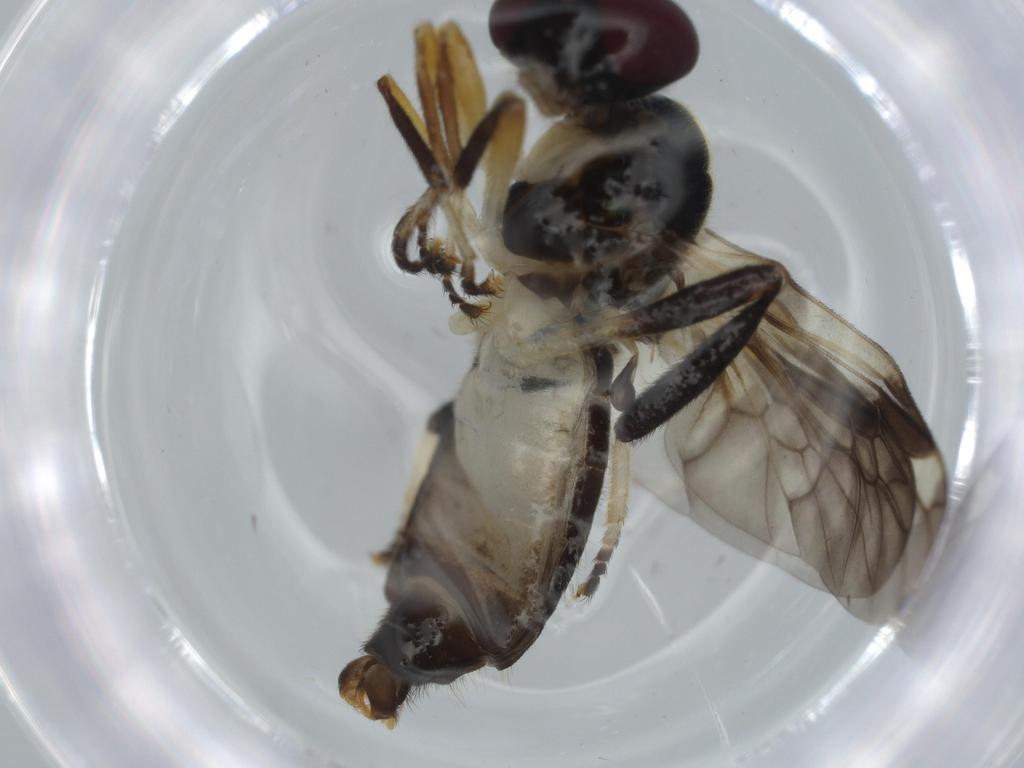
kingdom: Animalia
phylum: Arthropoda
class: Insecta
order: Diptera
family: Stratiomyidae
